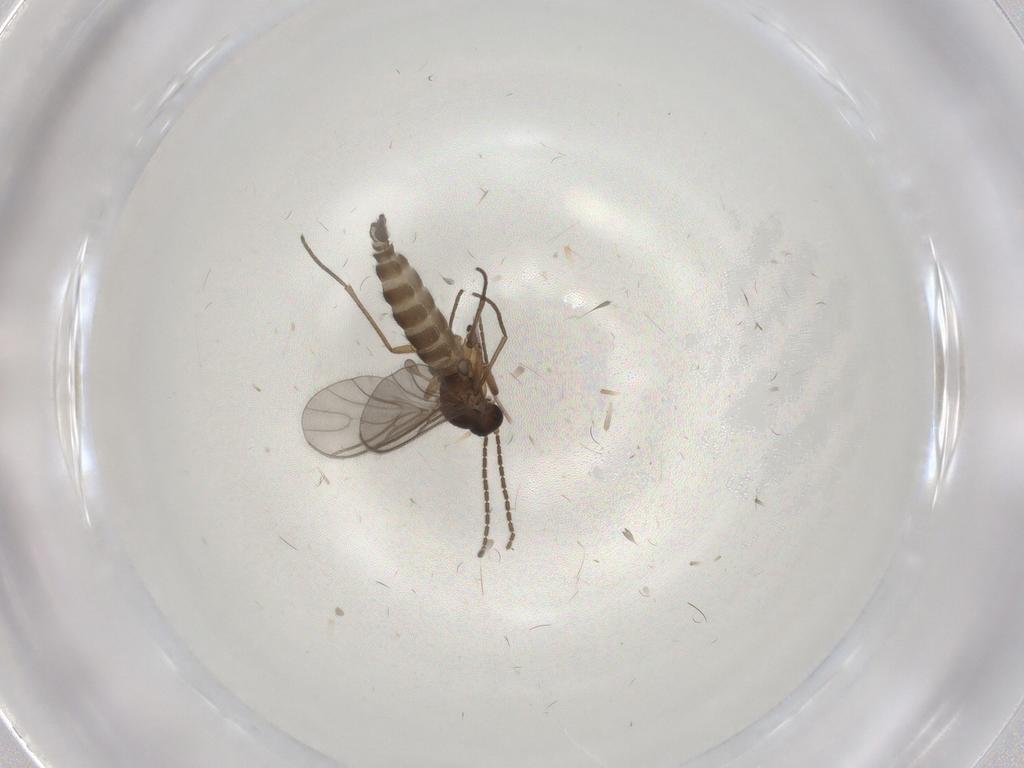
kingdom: Animalia
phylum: Arthropoda
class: Insecta
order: Diptera
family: Sciaridae
